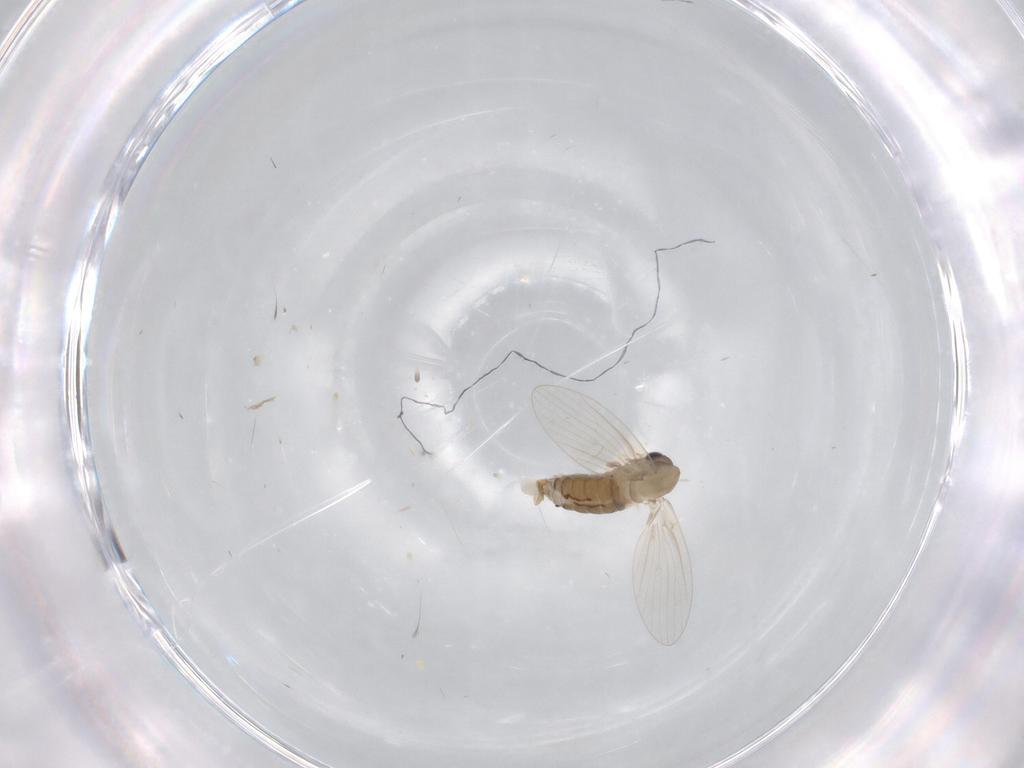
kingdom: Animalia
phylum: Arthropoda
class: Insecta
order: Diptera
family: Psychodidae
